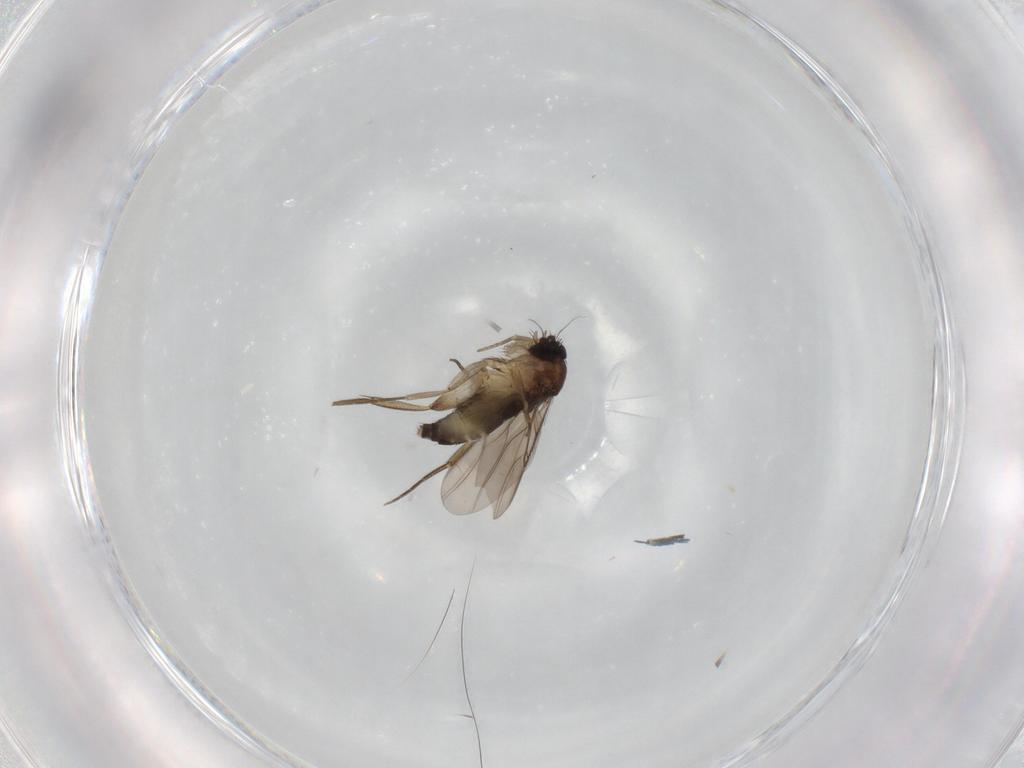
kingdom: Animalia
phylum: Arthropoda
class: Insecta
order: Diptera
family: Phoridae
